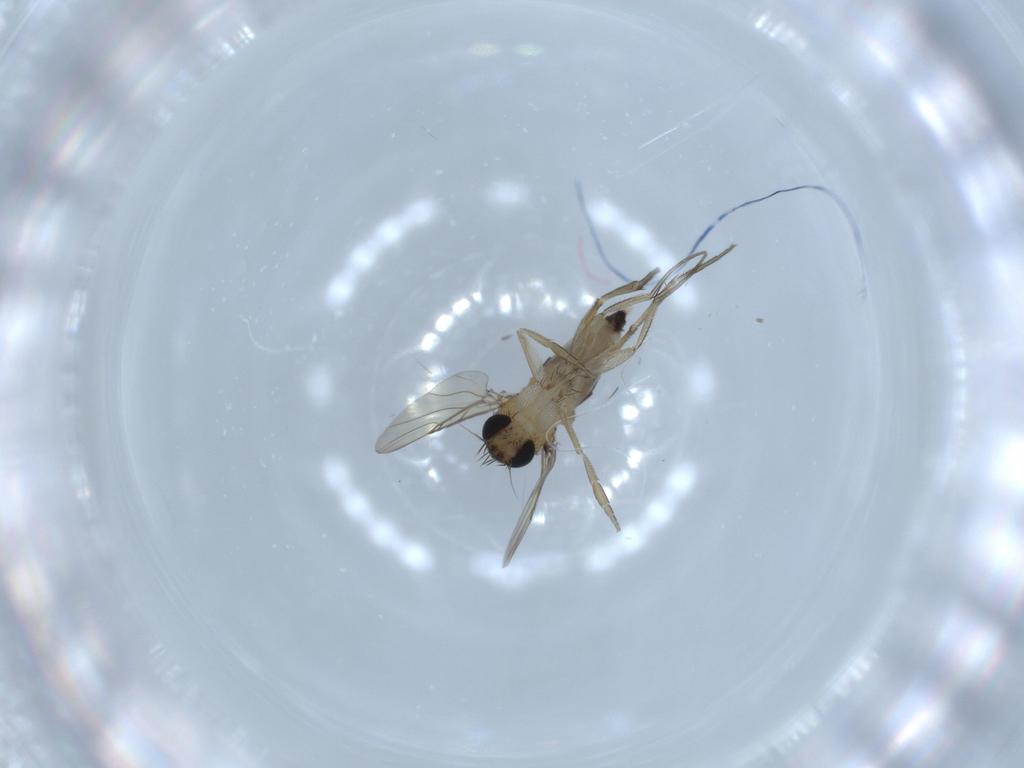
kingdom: Animalia
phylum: Arthropoda
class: Insecta
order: Diptera
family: Phoridae
